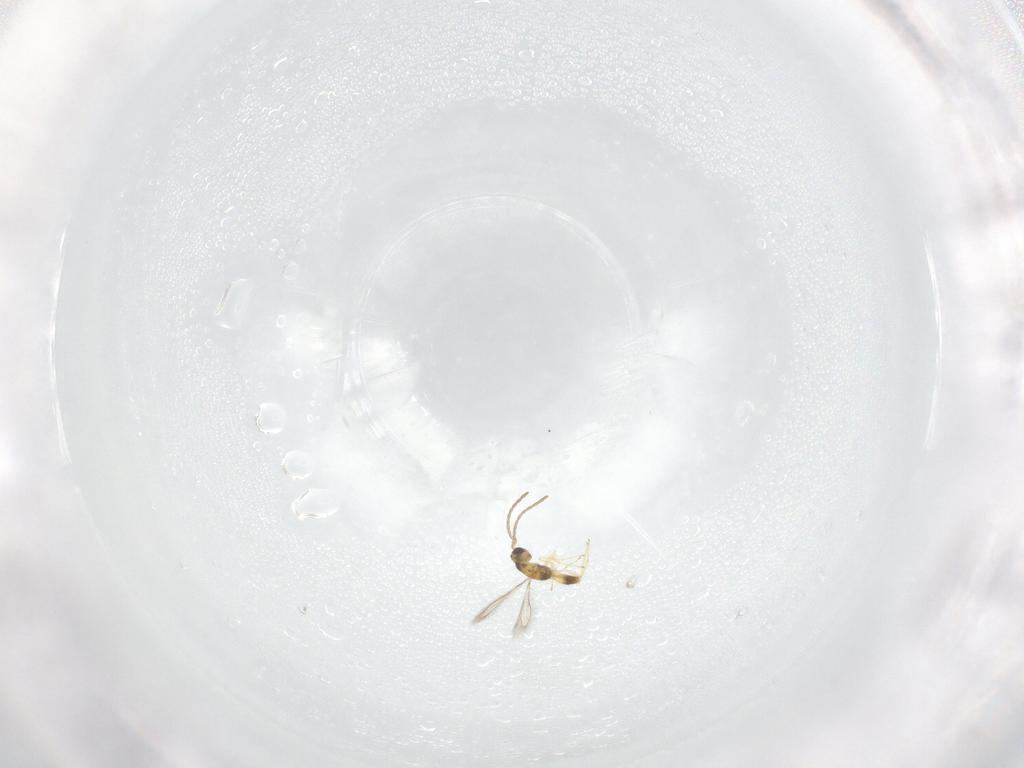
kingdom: Animalia
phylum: Arthropoda
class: Insecta
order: Hymenoptera
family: Mymaridae
